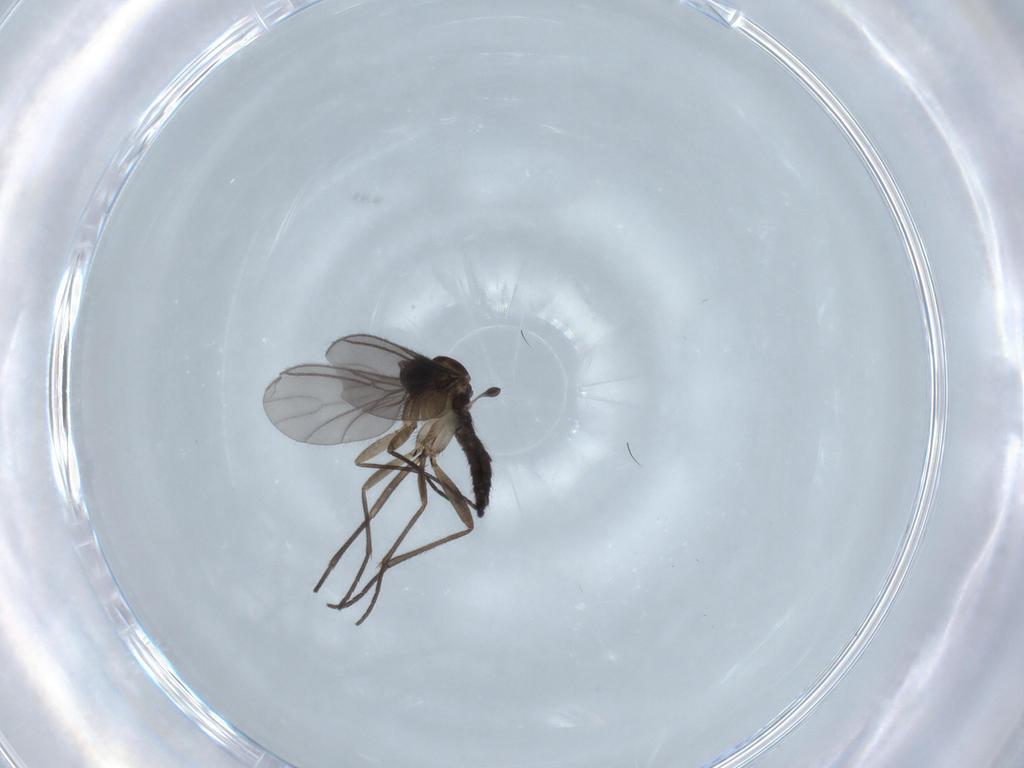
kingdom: Animalia
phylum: Arthropoda
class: Insecta
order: Diptera
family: Sciaridae
